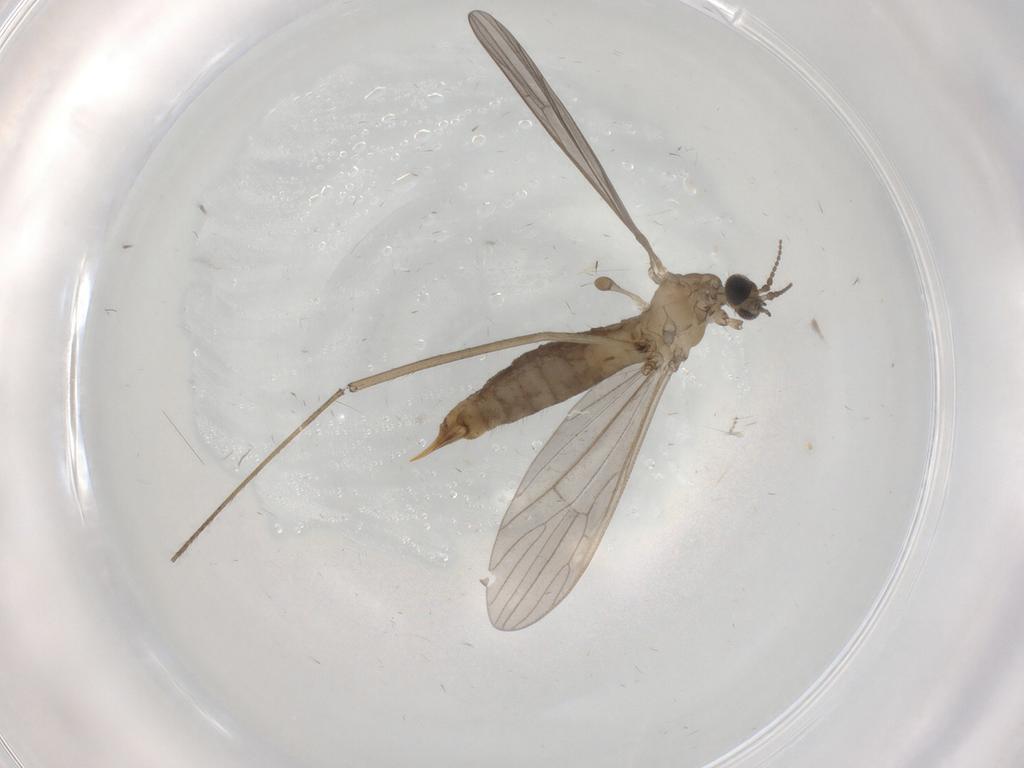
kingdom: Animalia
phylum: Arthropoda
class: Insecta
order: Diptera
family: Limoniidae
